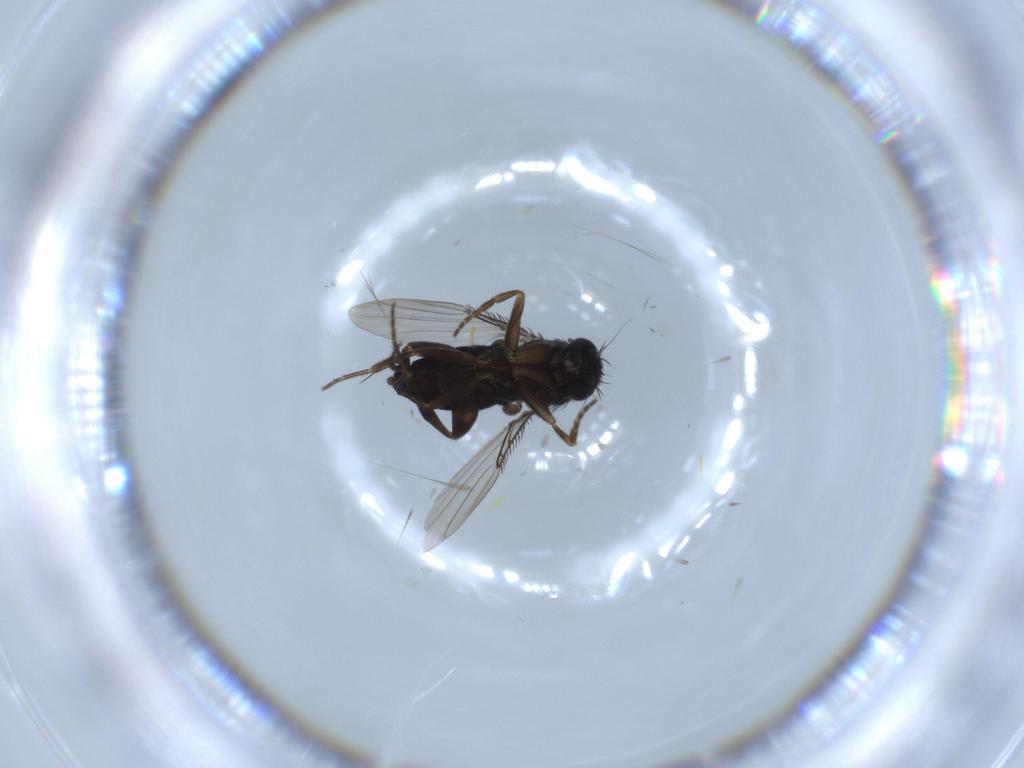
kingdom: Animalia
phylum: Arthropoda
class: Insecta
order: Diptera
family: Phoridae
